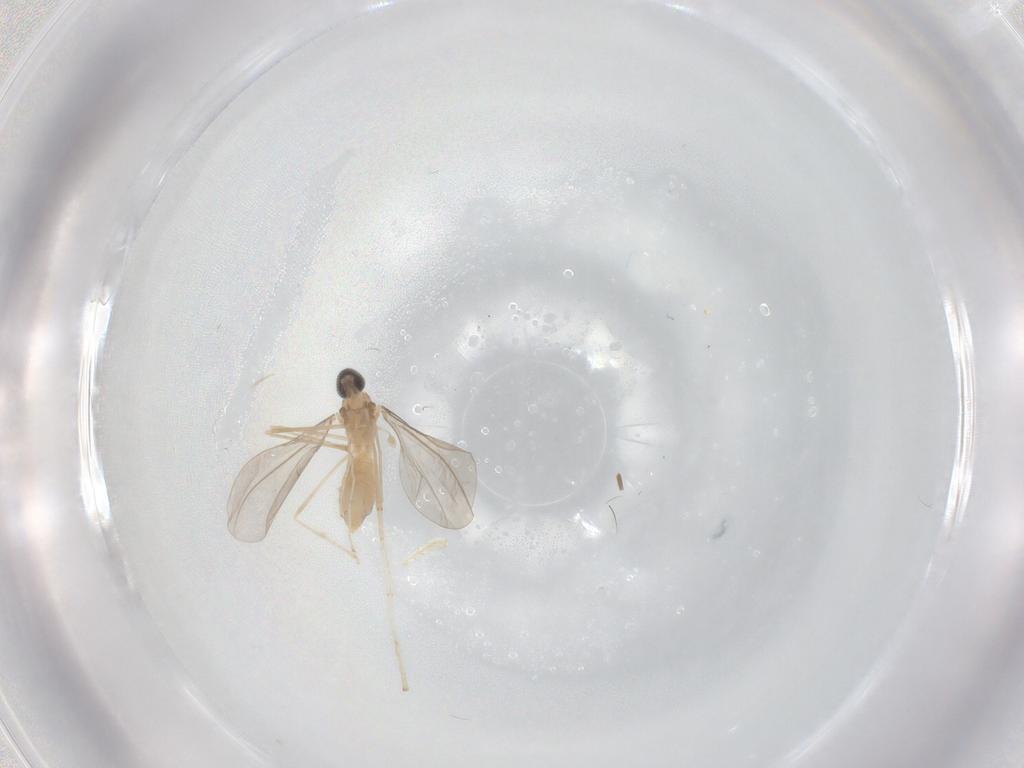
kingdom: Animalia
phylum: Arthropoda
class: Insecta
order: Diptera
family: Cecidomyiidae
